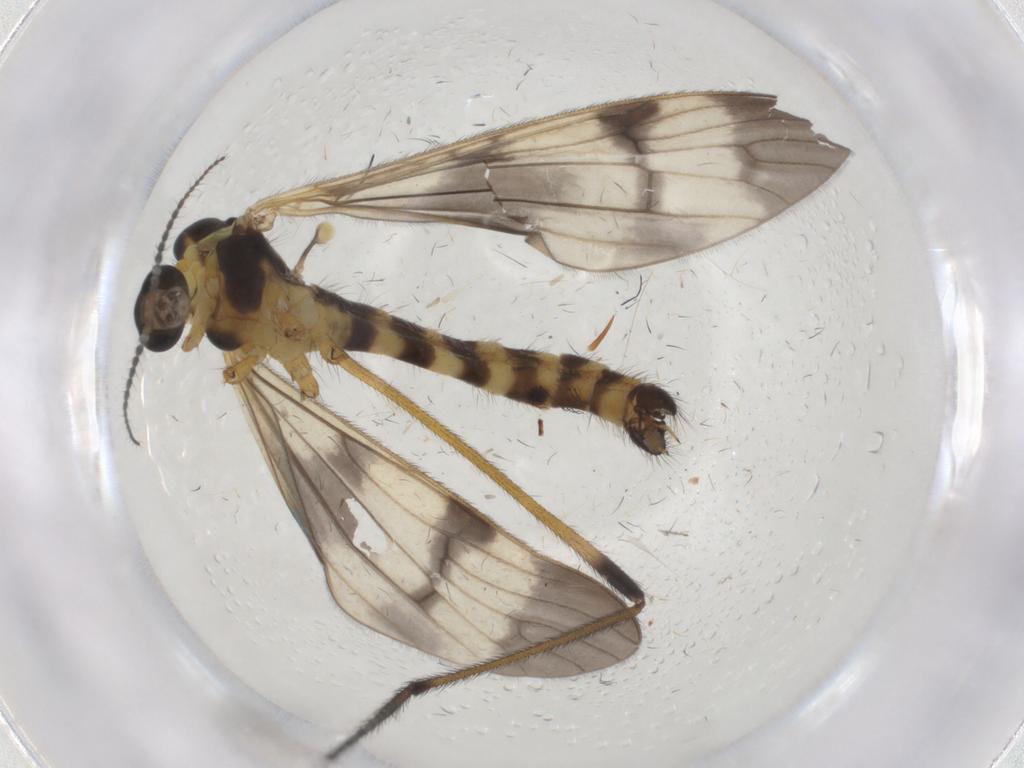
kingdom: Animalia
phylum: Arthropoda
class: Insecta
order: Diptera
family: Limoniidae
